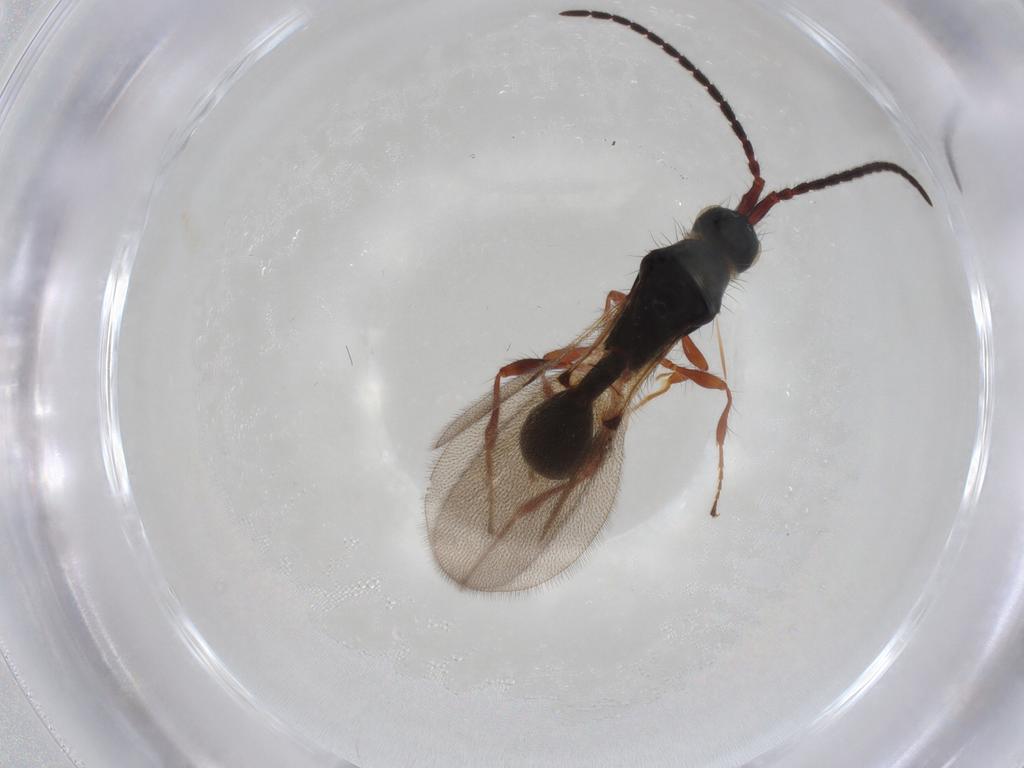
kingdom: Animalia
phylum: Arthropoda
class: Insecta
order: Hymenoptera
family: Diapriidae
